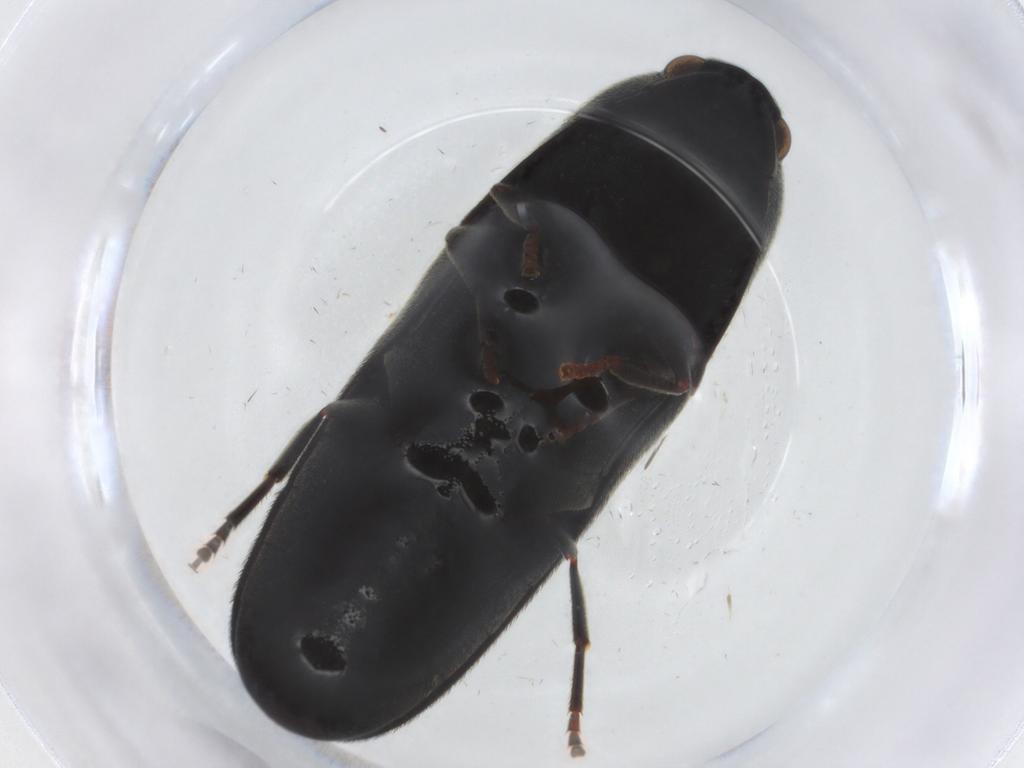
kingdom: Animalia
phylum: Arthropoda
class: Insecta
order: Coleoptera
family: Eucnemidae
